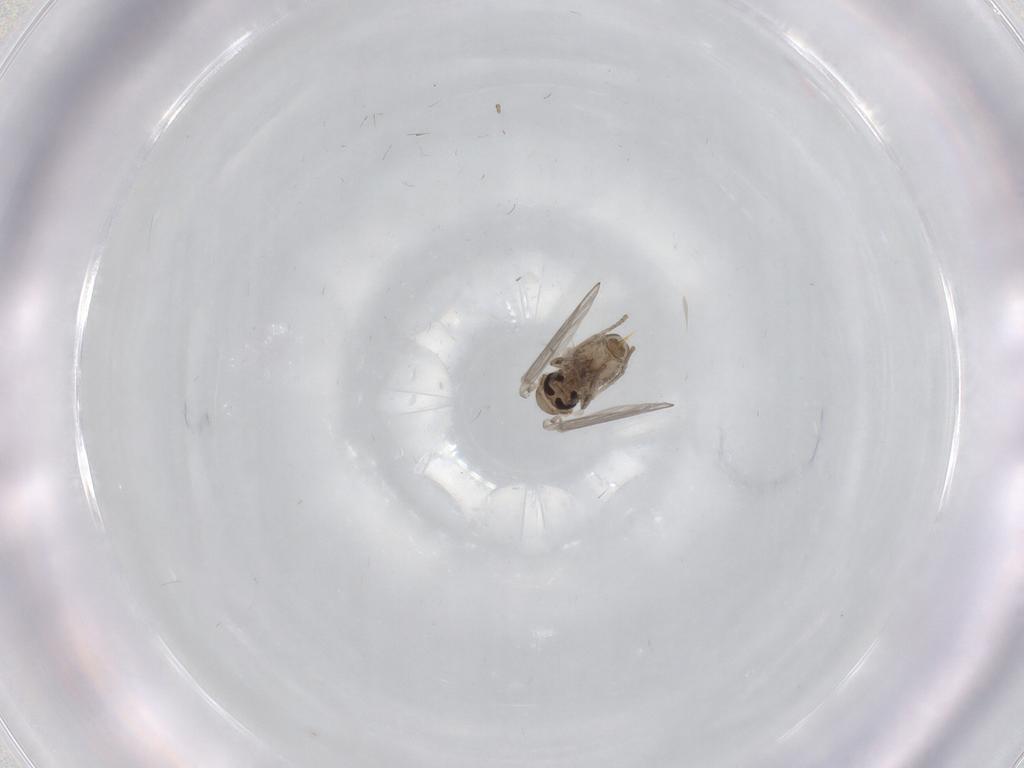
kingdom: Animalia
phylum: Arthropoda
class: Insecta
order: Diptera
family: Psychodidae
